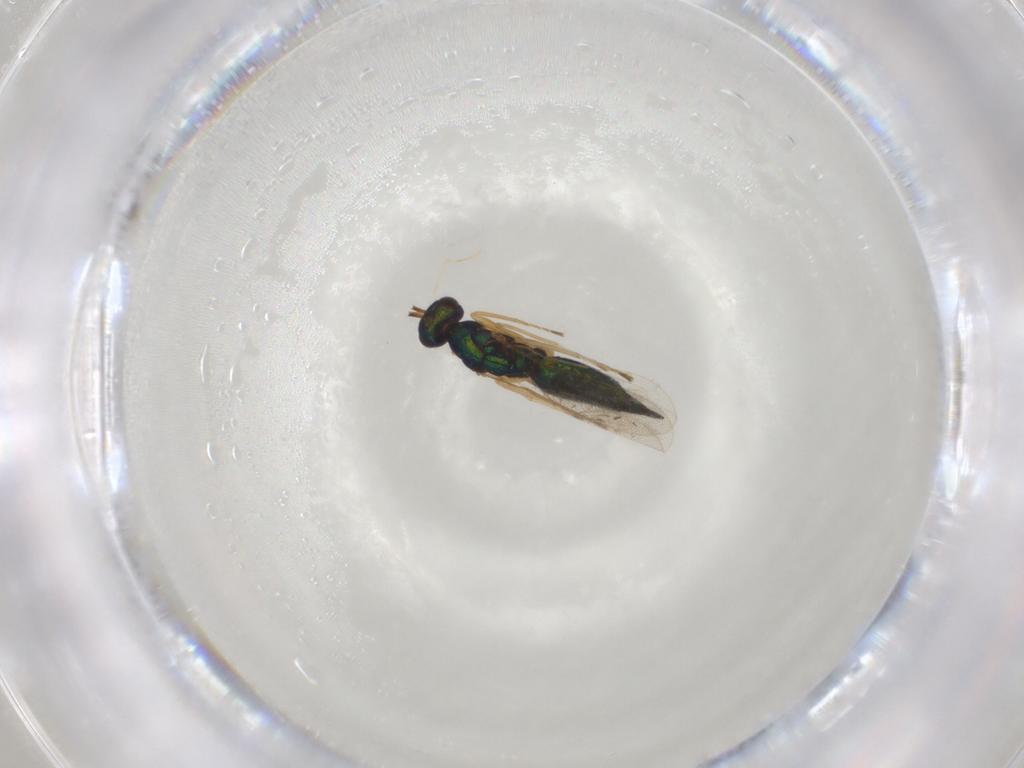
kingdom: Animalia
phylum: Arthropoda
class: Insecta
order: Hymenoptera
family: Eulophidae
